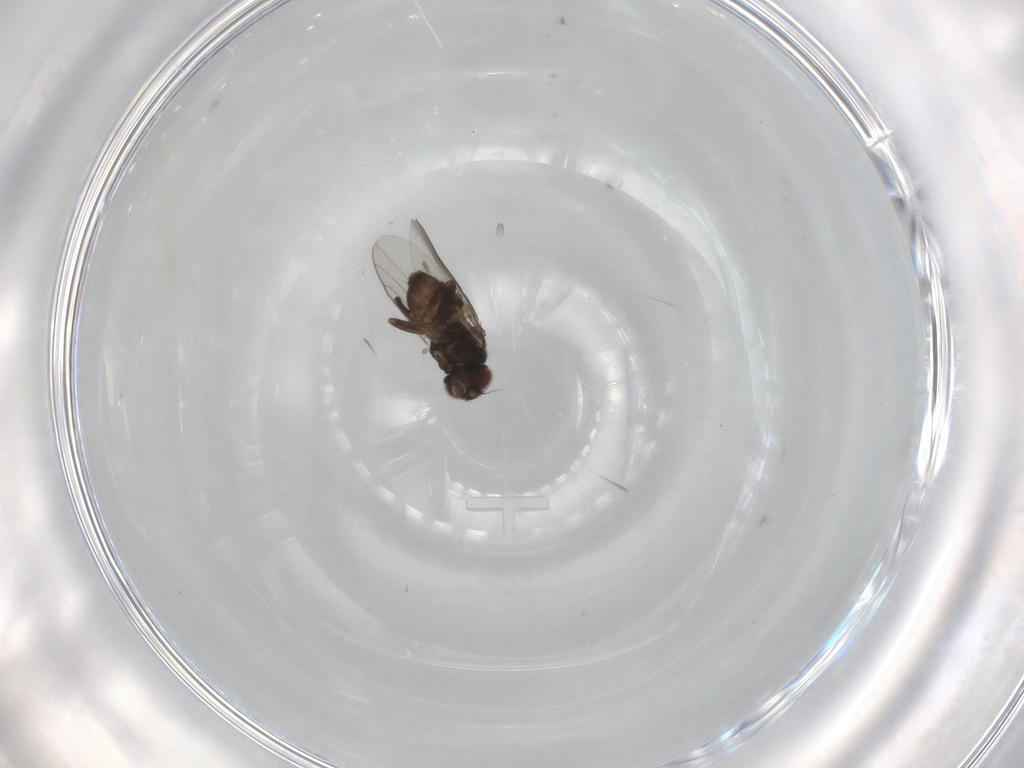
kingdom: Animalia
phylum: Arthropoda
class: Insecta
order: Diptera
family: Chloropidae
